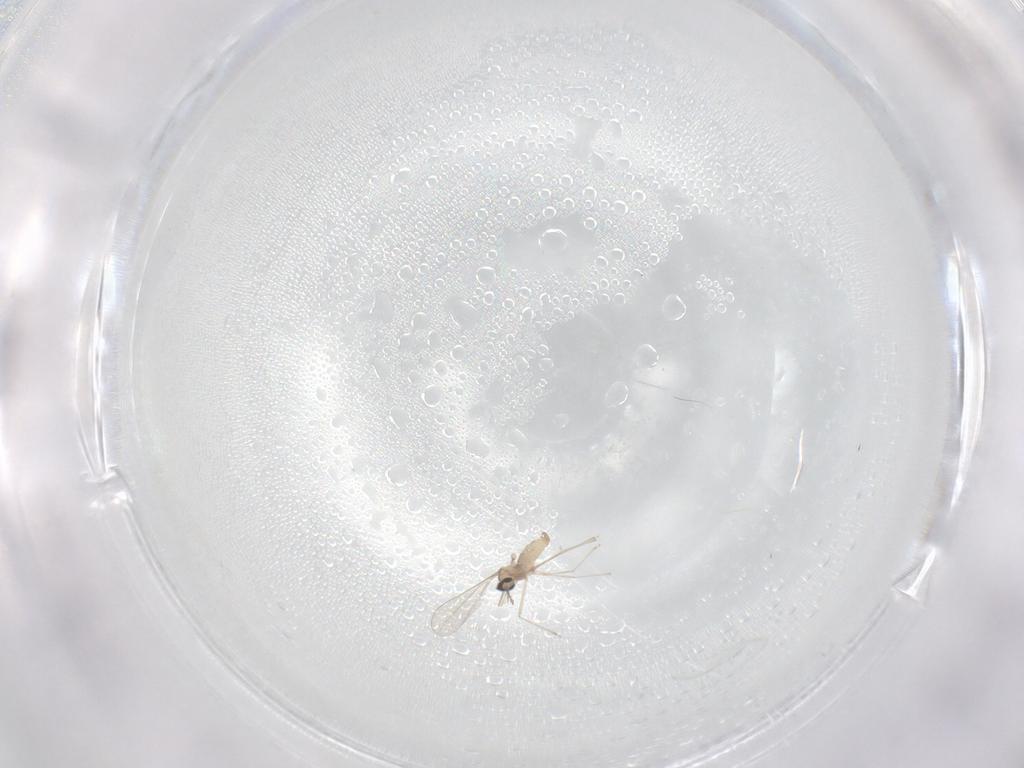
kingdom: Animalia
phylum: Arthropoda
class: Insecta
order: Diptera
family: Cecidomyiidae
